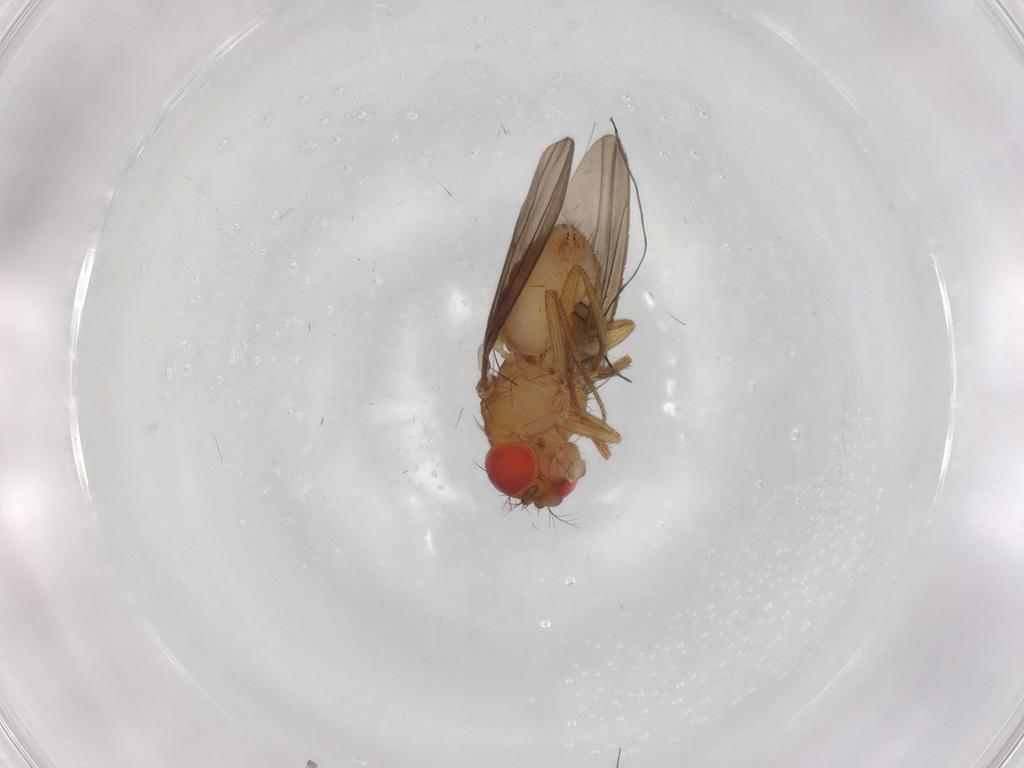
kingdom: Animalia
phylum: Arthropoda
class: Insecta
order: Diptera
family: Drosophilidae
